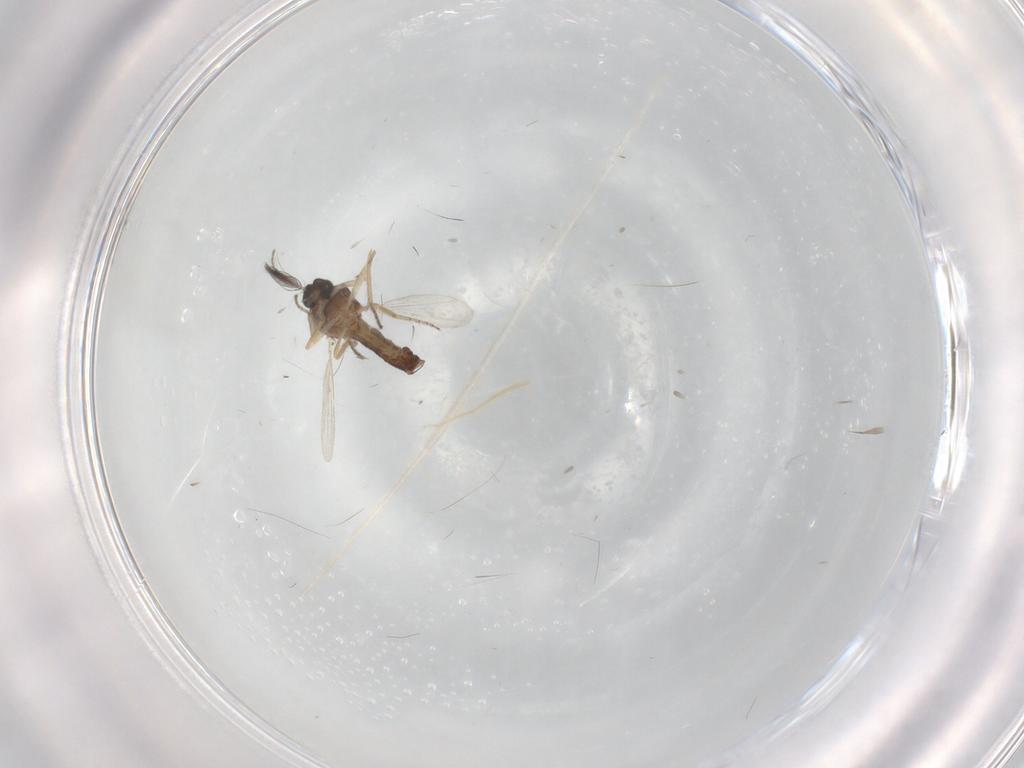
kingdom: Animalia
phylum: Arthropoda
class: Insecta
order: Diptera
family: Ceratopogonidae
